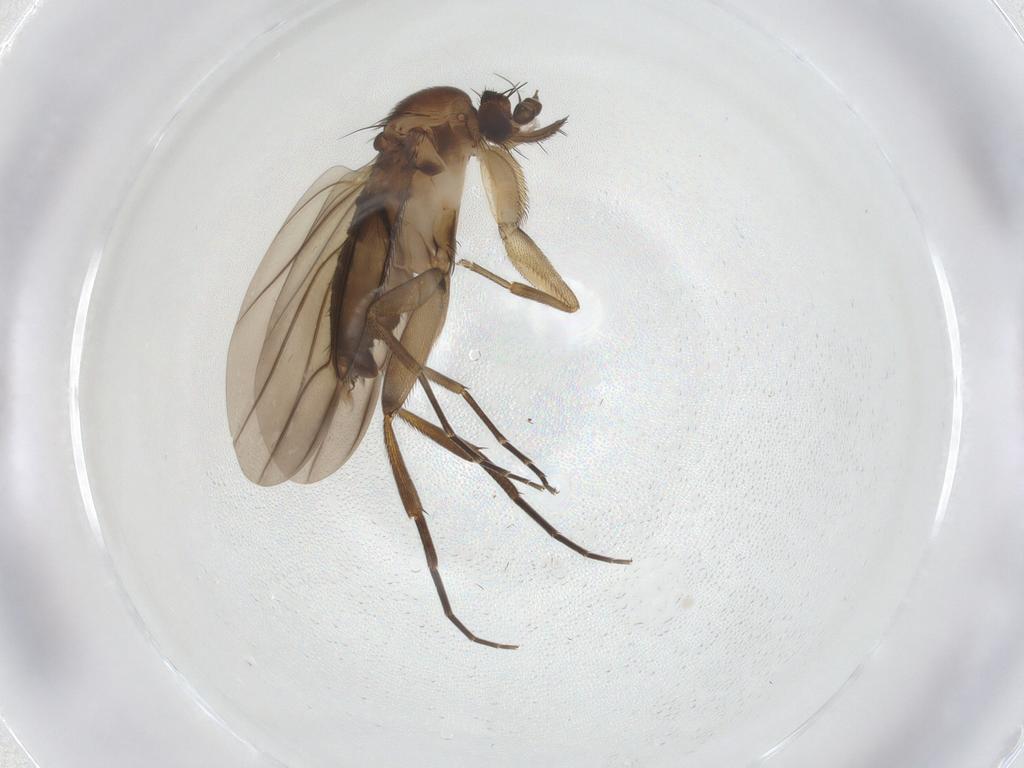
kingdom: Animalia
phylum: Arthropoda
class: Insecta
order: Diptera
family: Phoridae
